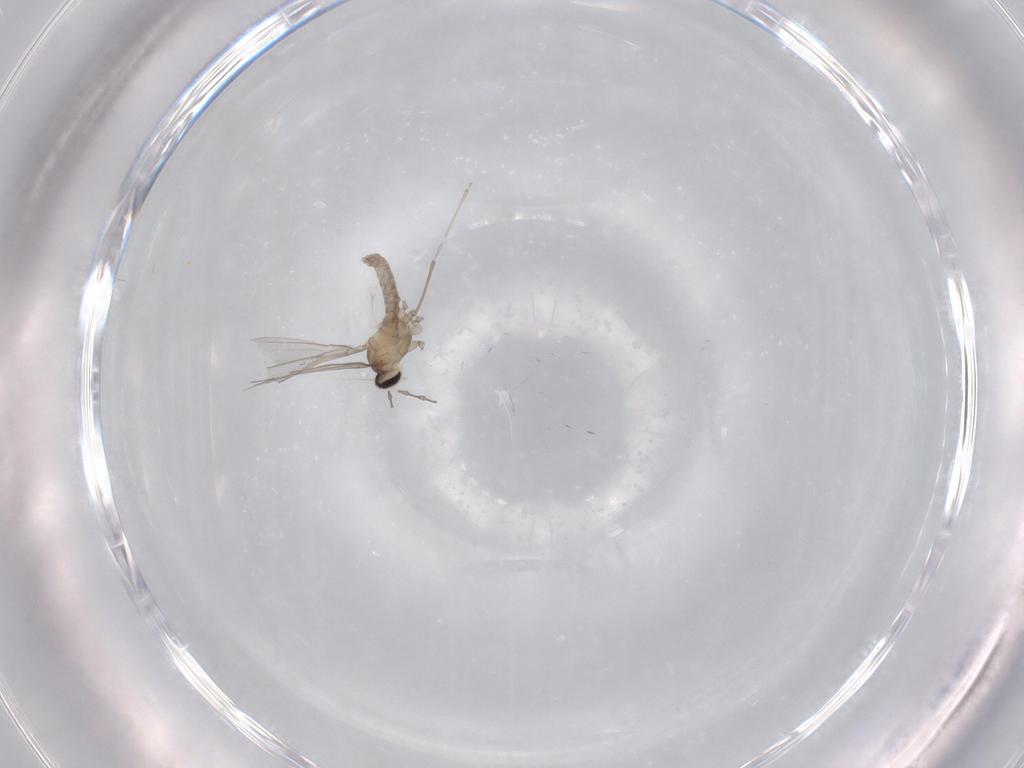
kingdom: Animalia
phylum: Arthropoda
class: Insecta
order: Diptera
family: Cecidomyiidae
